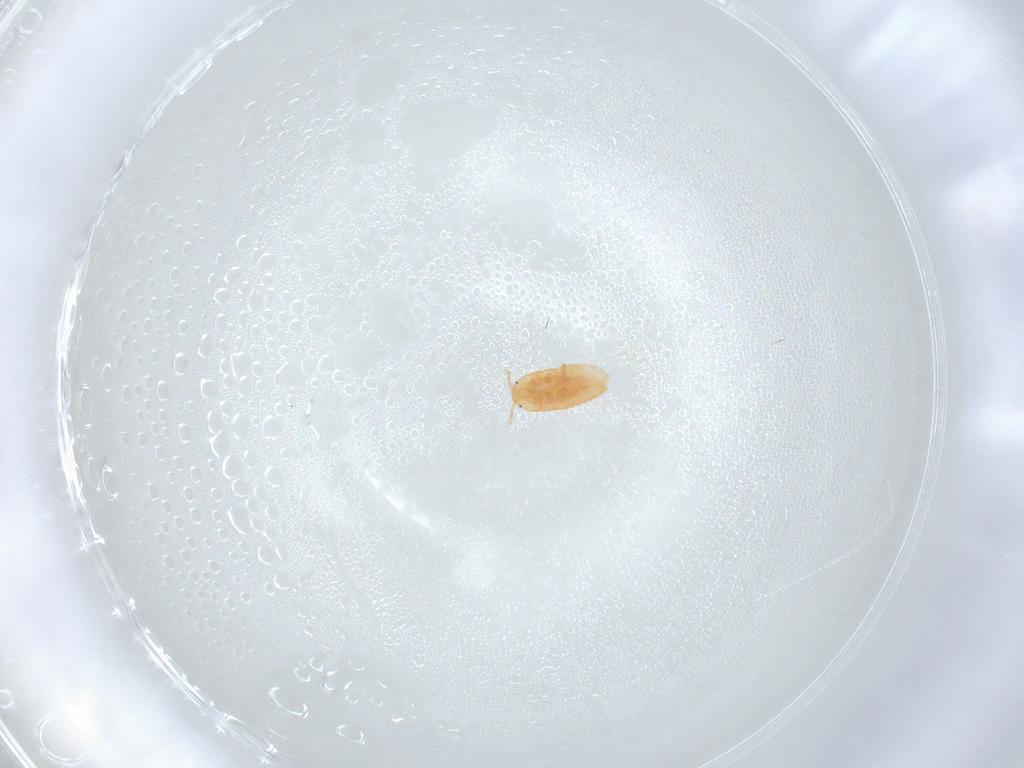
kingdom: Animalia
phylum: Arthropoda
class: Insecta
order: Hemiptera
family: Pseudococcidae
